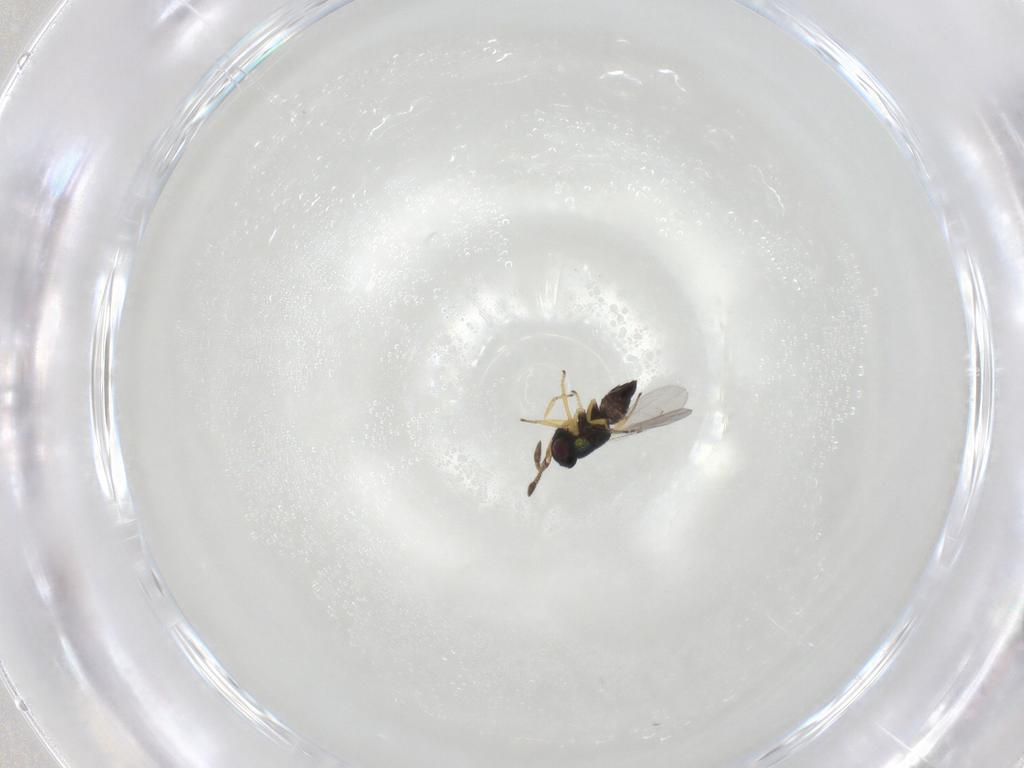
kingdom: Animalia
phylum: Arthropoda
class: Insecta
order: Hymenoptera
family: Encyrtidae
